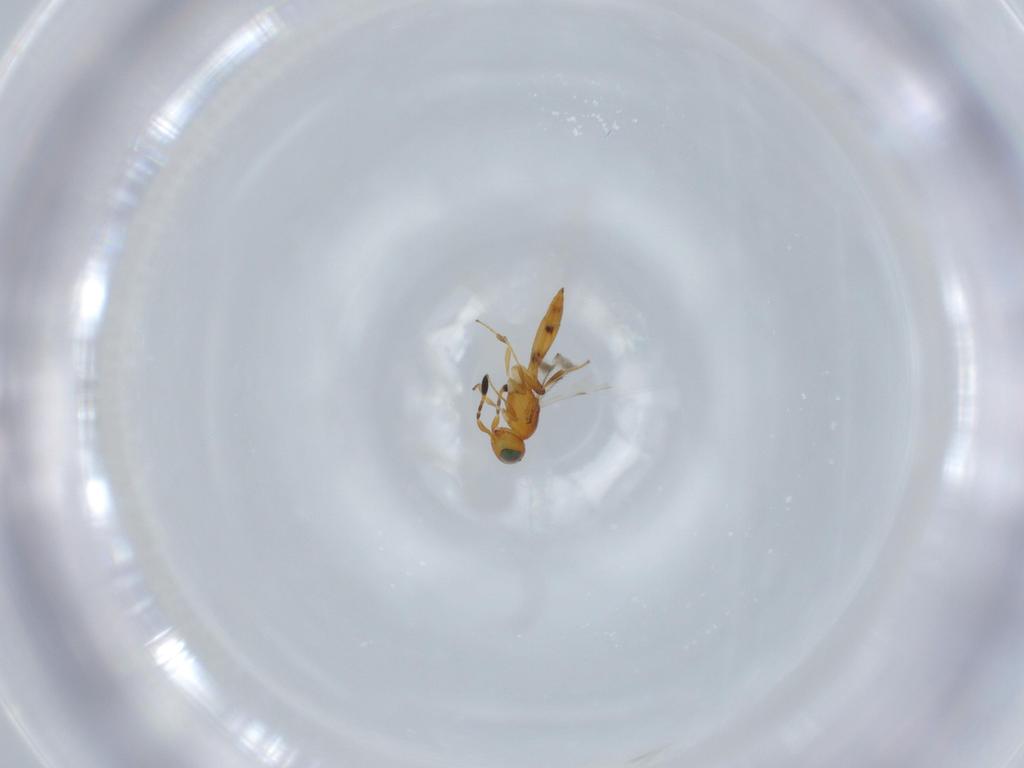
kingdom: Animalia
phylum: Arthropoda
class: Insecta
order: Hymenoptera
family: Scelionidae
